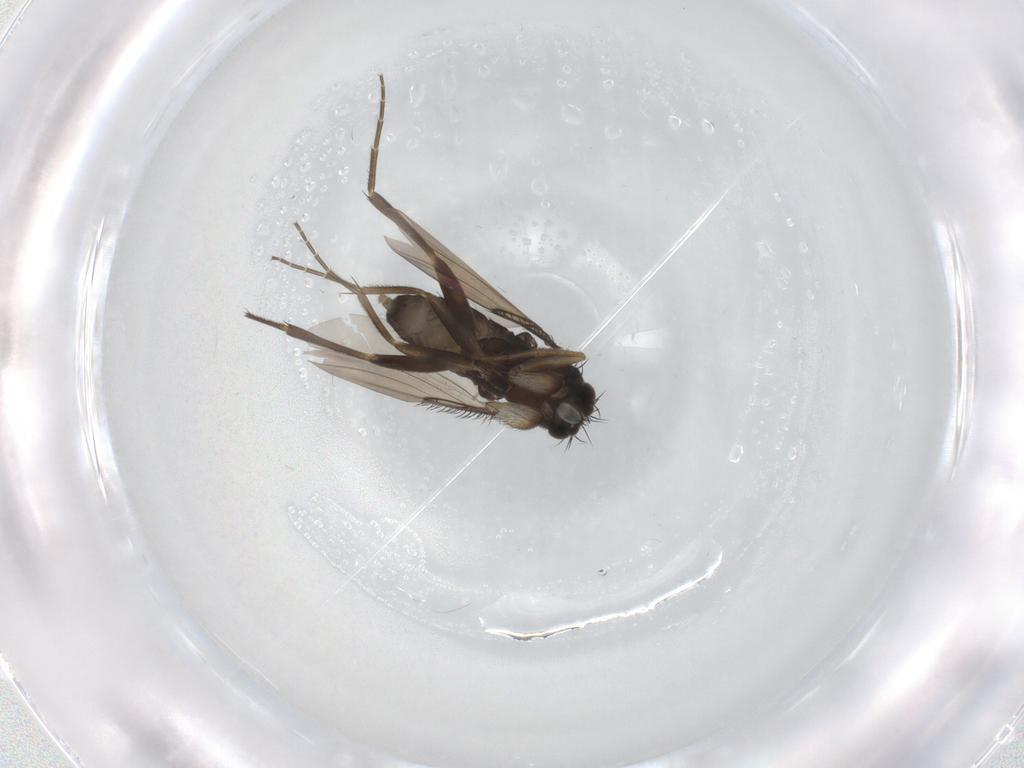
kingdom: Animalia
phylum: Arthropoda
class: Insecta
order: Diptera
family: Phoridae
